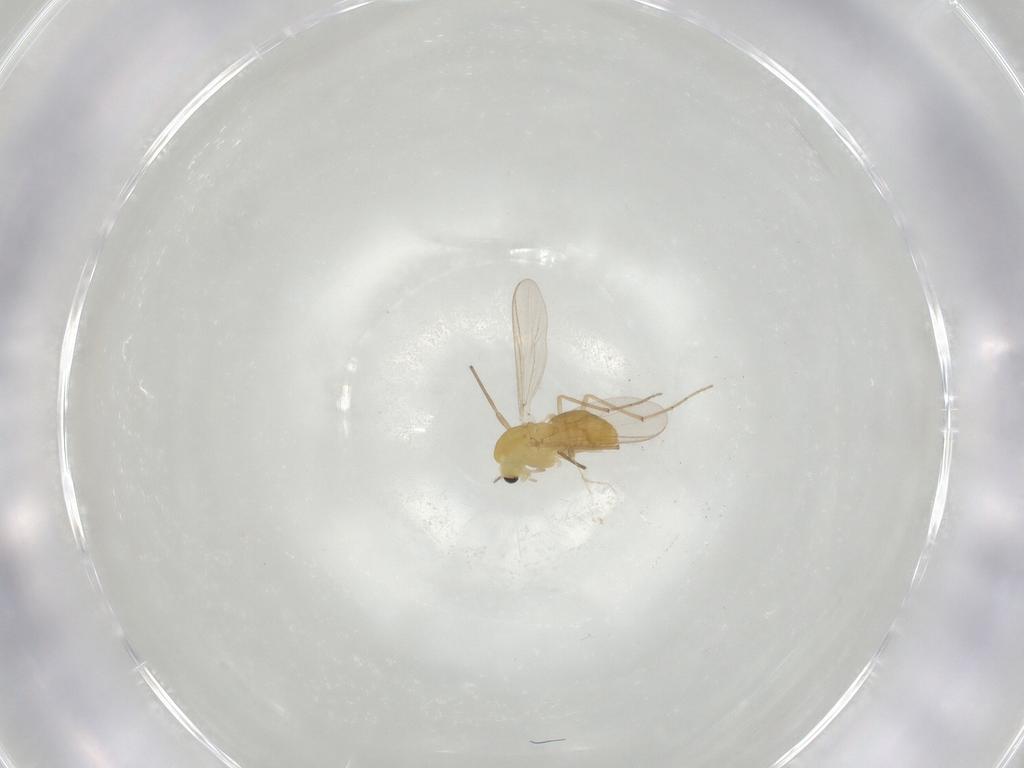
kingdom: Animalia
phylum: Arthropoda
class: Insecta
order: Diptera
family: Chironomidae
